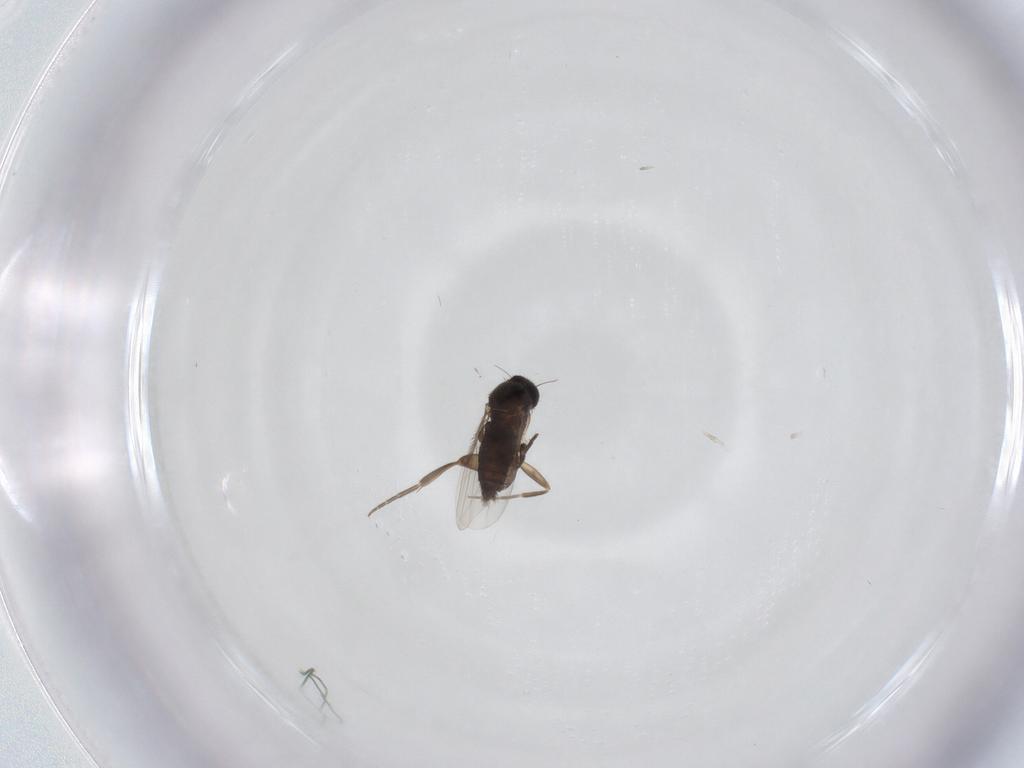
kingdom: Animalia
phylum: Arthropoda
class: Insecta
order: Diptera
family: Phoridae
